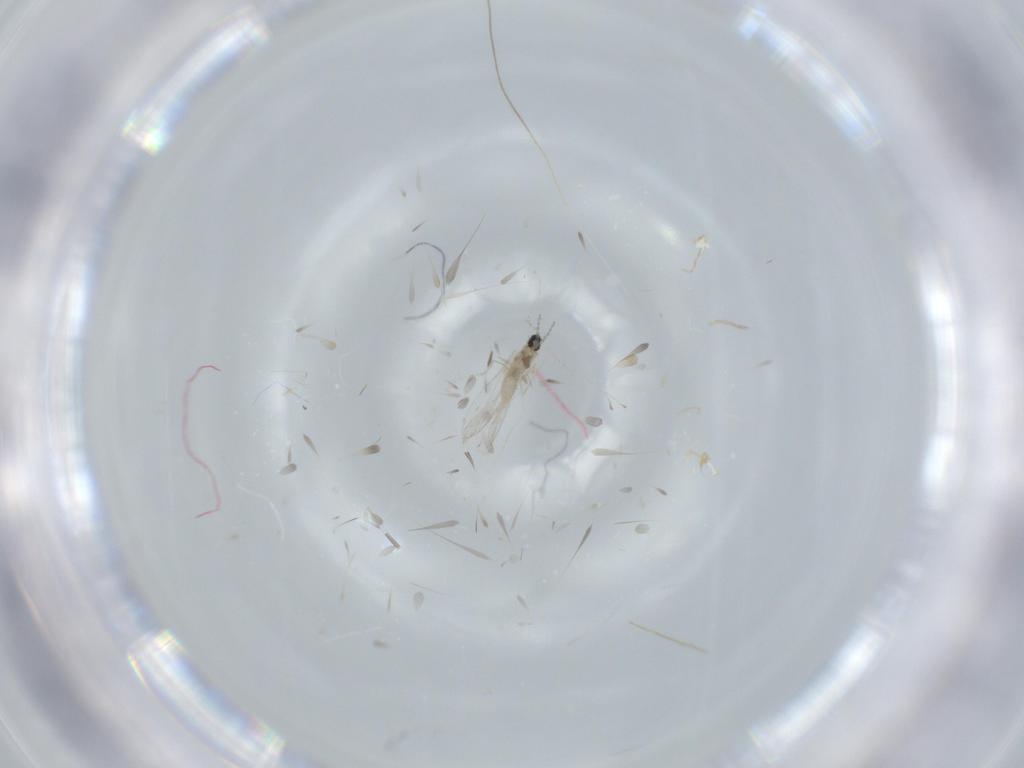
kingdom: Animalia
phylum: Arthropoda
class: Insecta
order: Diptera
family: Cecidomyiidae
